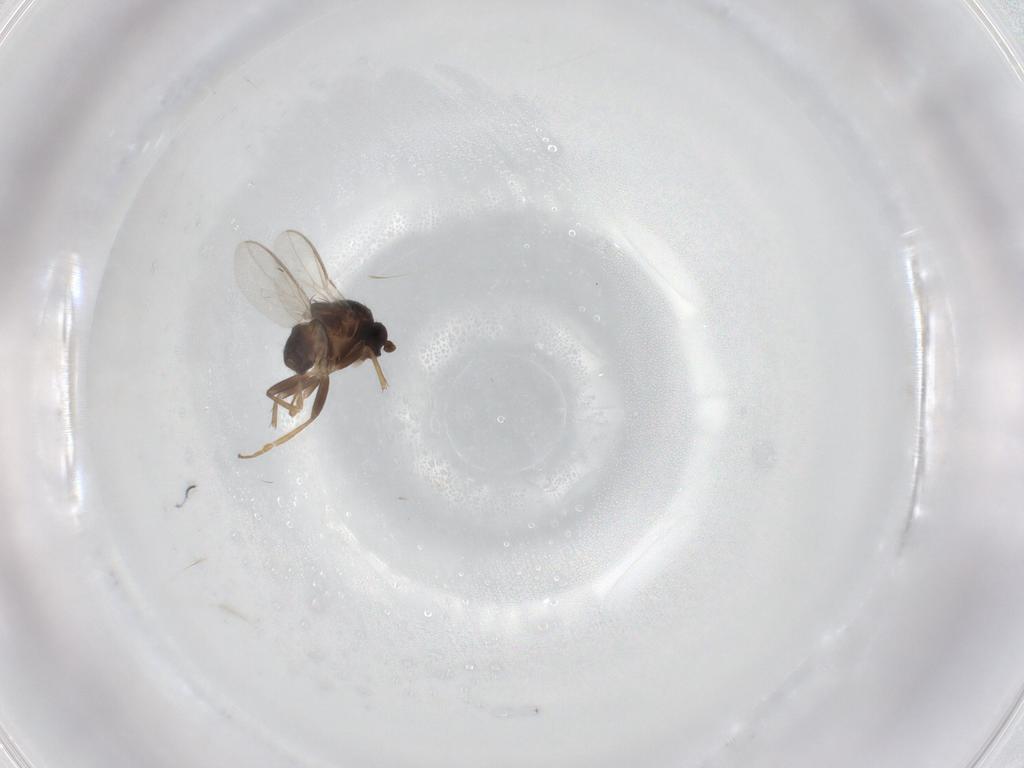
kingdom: Animalia
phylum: Arthropoda
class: Insecta
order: Diptera
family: Sphaeroceridae
